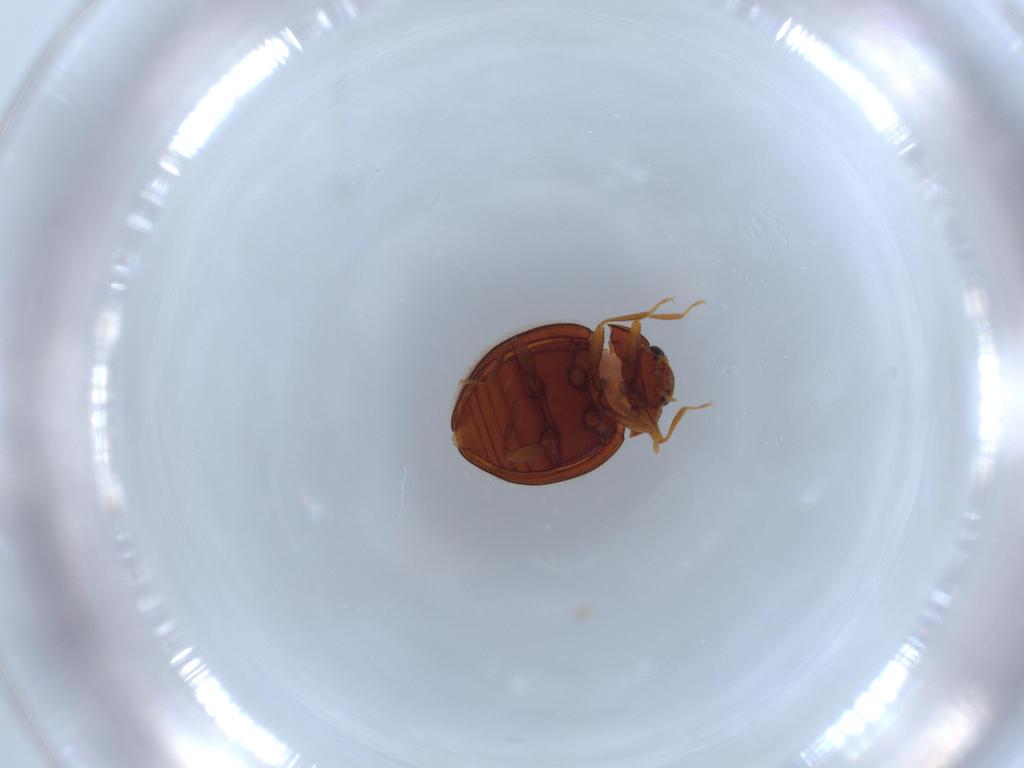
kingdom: Animalia
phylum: Arthropoda
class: Insecta
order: Coleoptera
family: Anamorphidae
